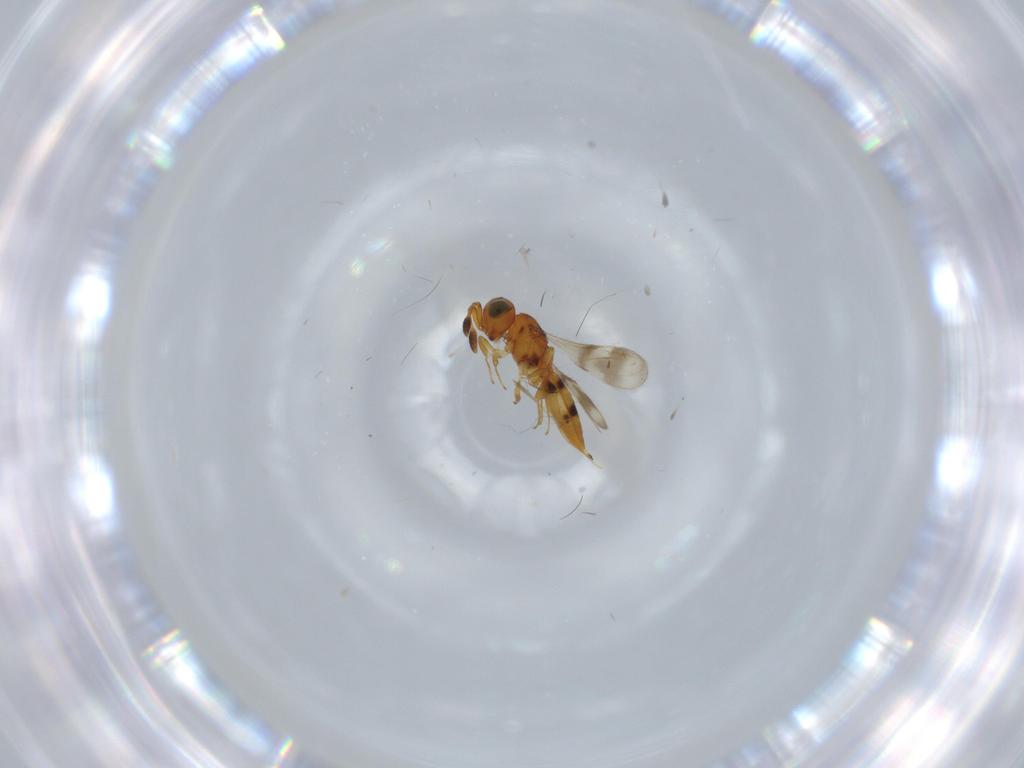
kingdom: Animalia
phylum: Arthropoda
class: Insecta
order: Hymenoptera
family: Scelionidae
